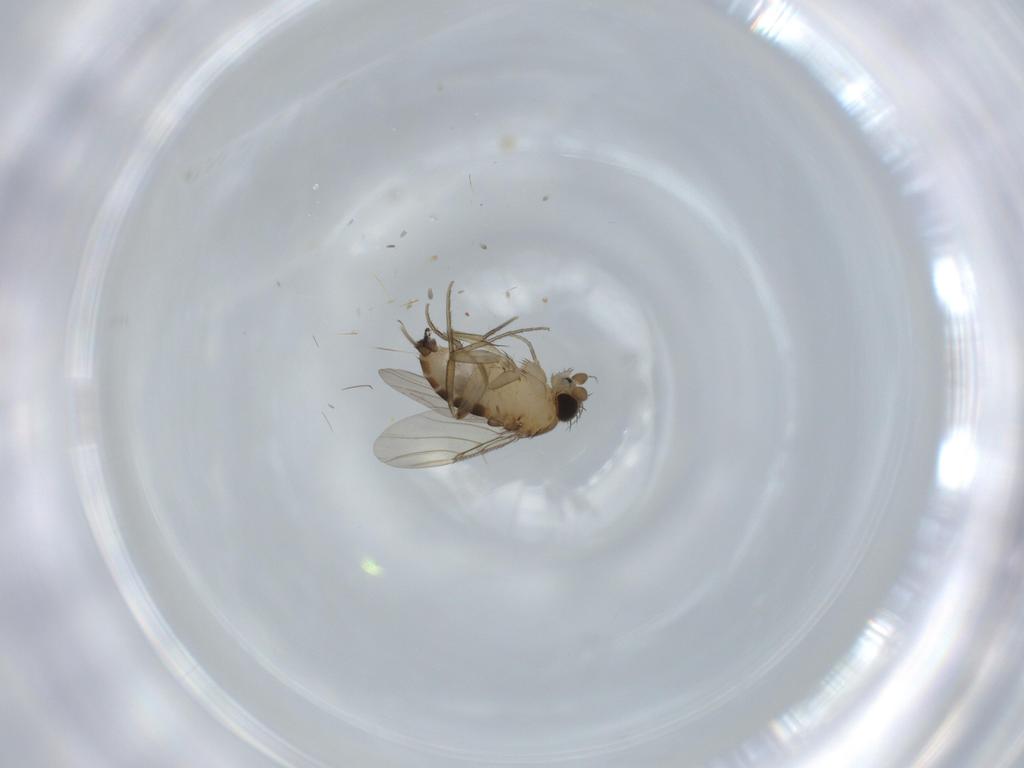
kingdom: Animalia
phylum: Arthropoda
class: Insecta
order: Diptera
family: Phoridae
